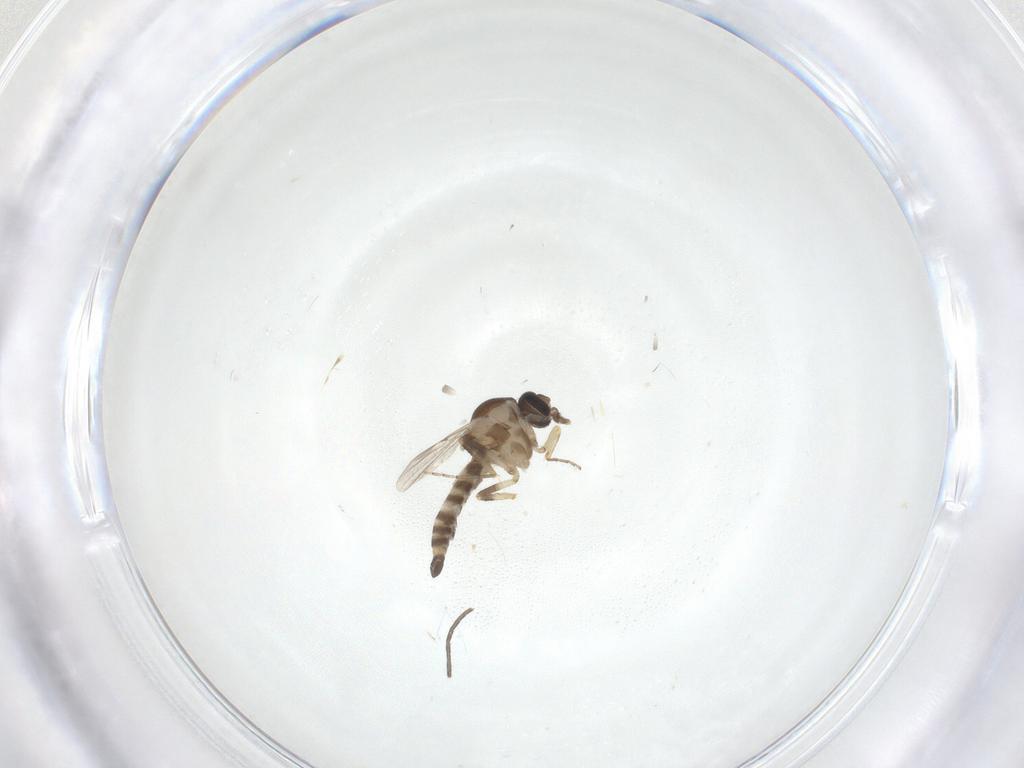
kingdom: Animalia
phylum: Arthropoda
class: Insecta
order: Diptera
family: Ceratopogonidae
